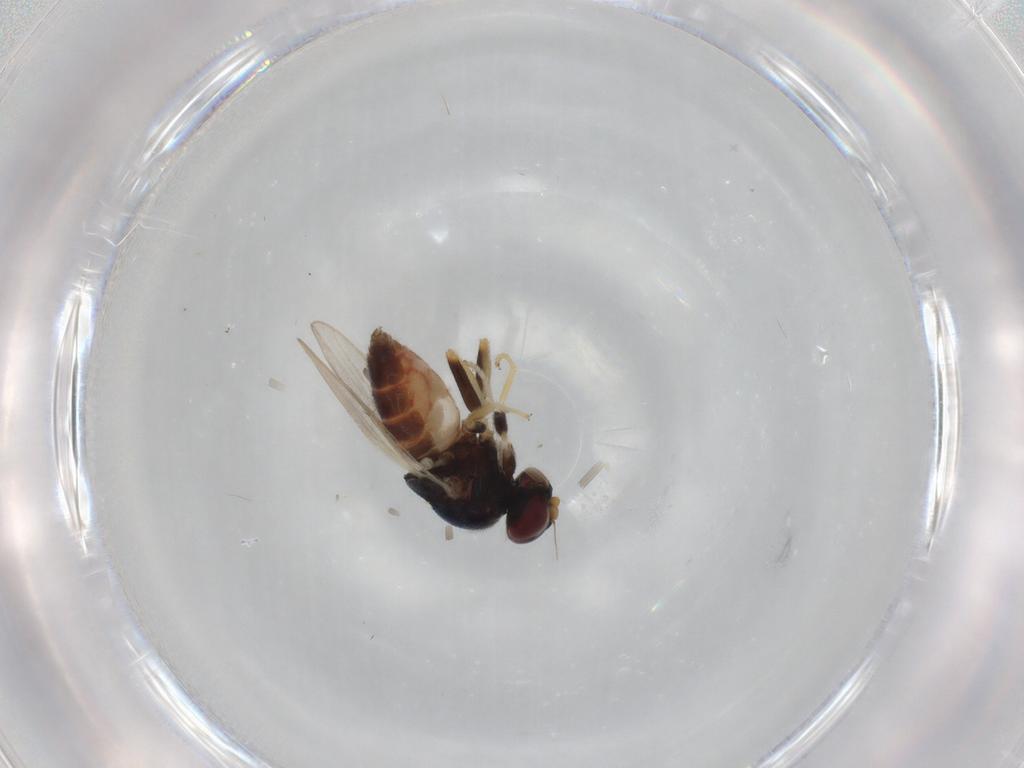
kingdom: Animalia
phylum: Arthropoda
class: Insecta
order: Diptera
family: Chloropidae
